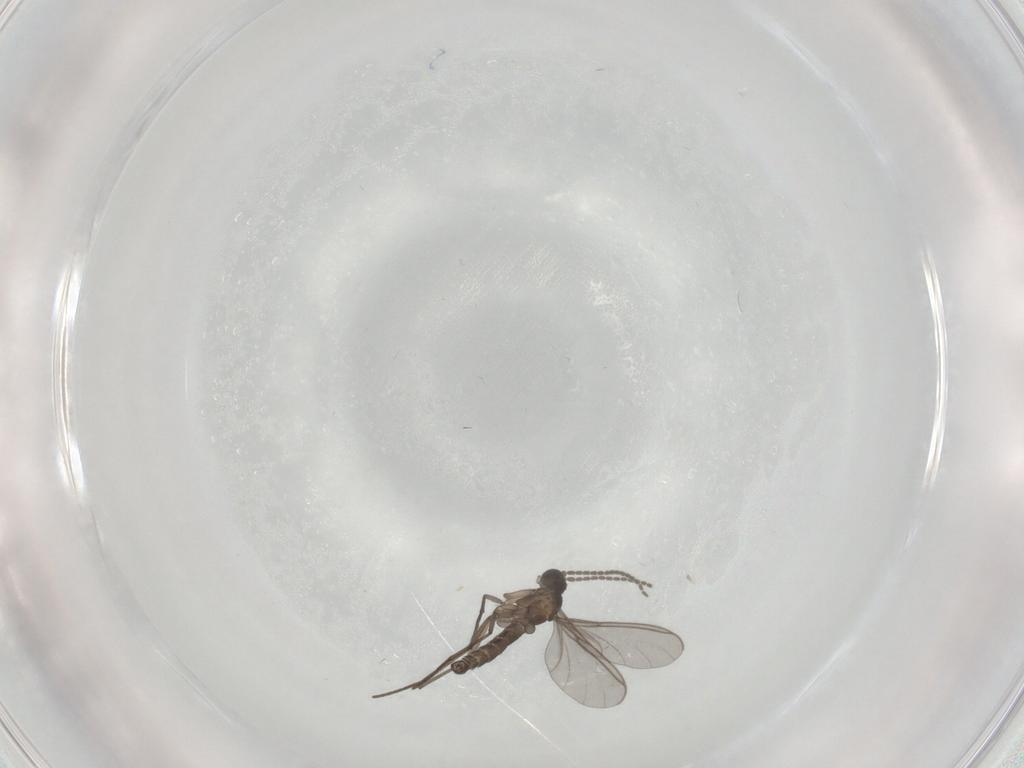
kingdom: Animalia
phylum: Arthropoda
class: Insecta
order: Diptera
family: Sciaridae
